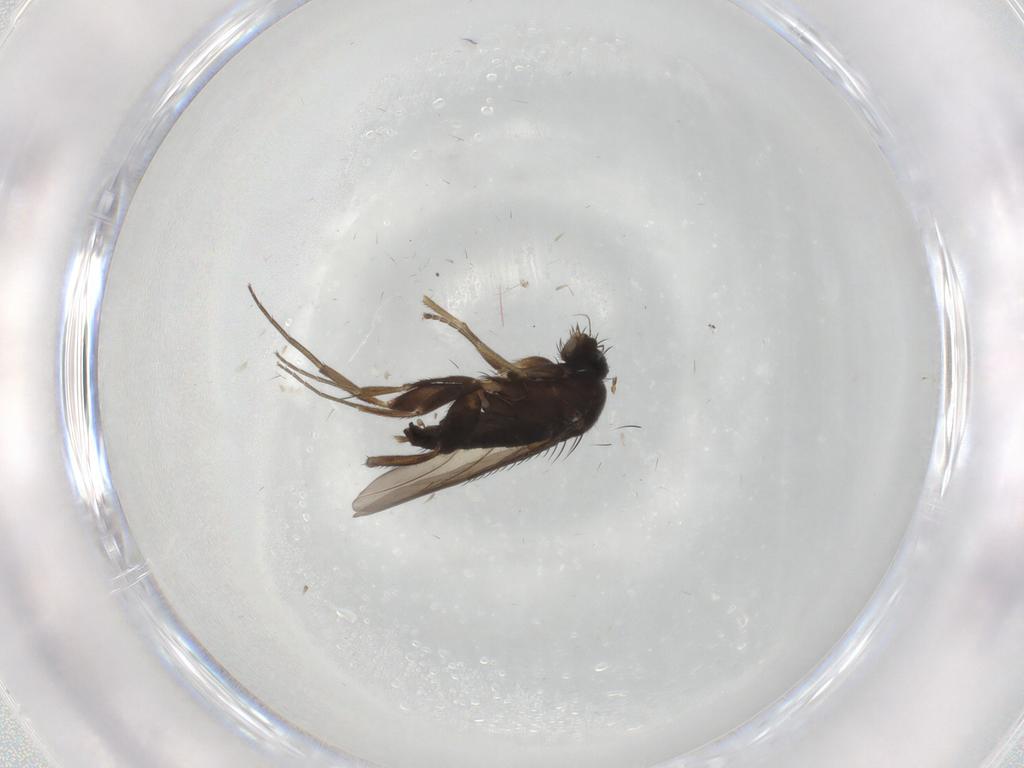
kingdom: Animalia
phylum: Arthropoda
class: Insecta
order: Diptera
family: Phoridae
